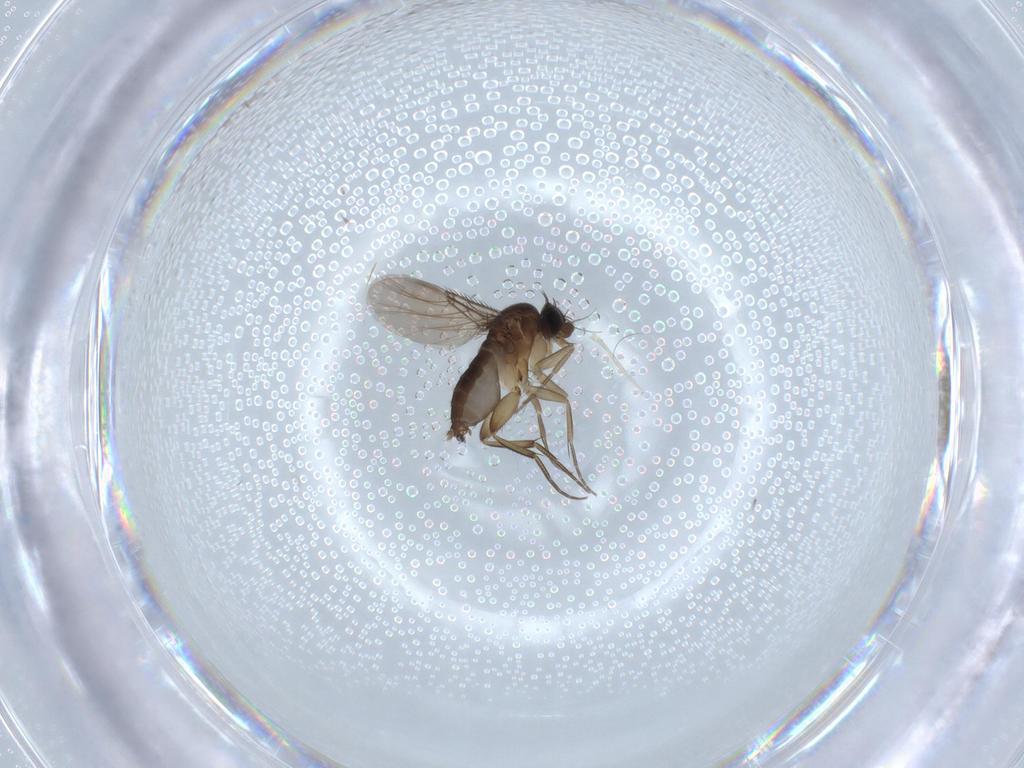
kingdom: Animalia
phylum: Arthropoda
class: Insecta
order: Diptera
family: Phoridae
